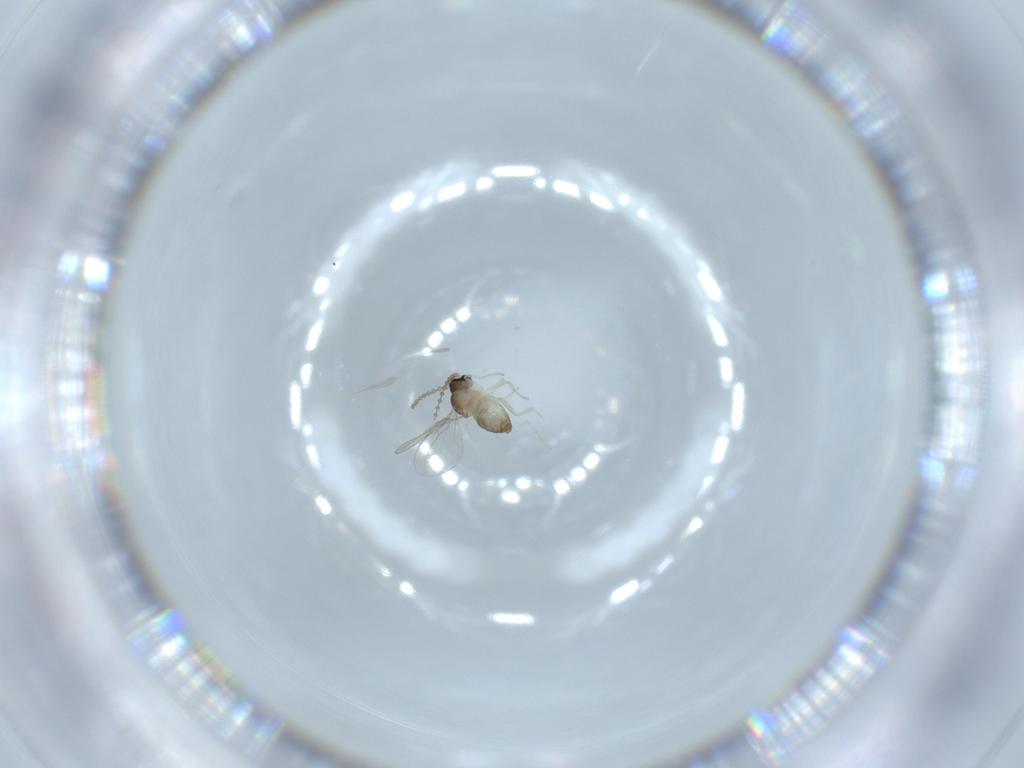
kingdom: Animalia
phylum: Arthropoda
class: Insecta
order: Diptera
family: Cecidomyiidae
